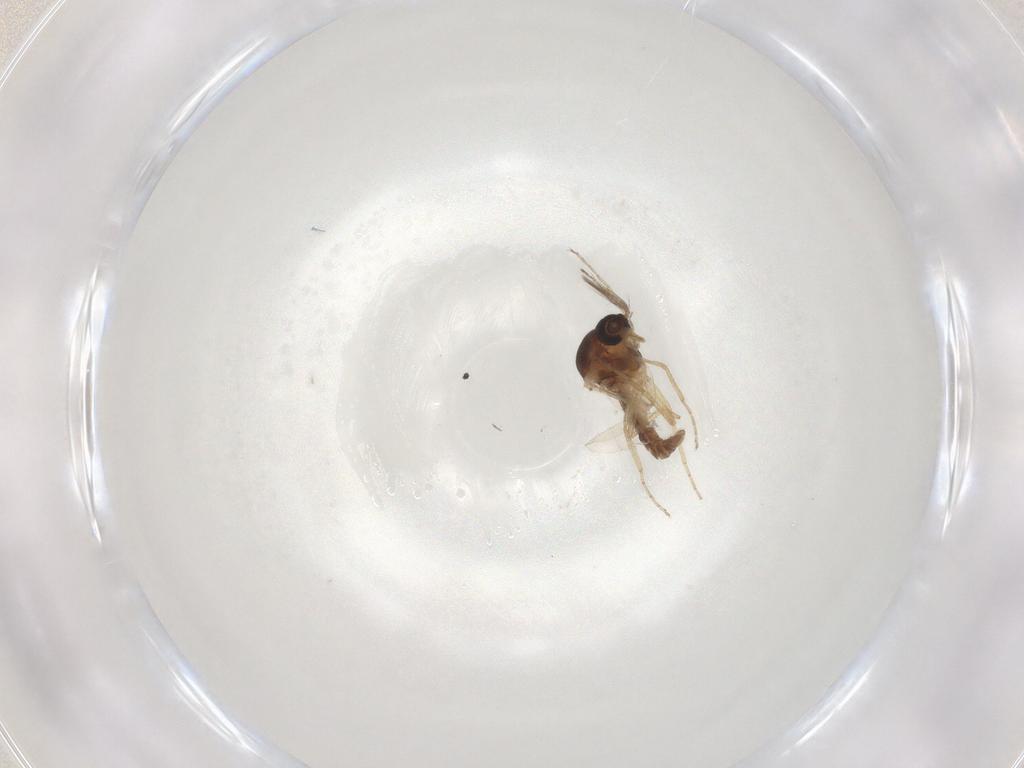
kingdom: Animalia
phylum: Arthropoda
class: Insecta
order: Diptera
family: Ceratopogonidae
